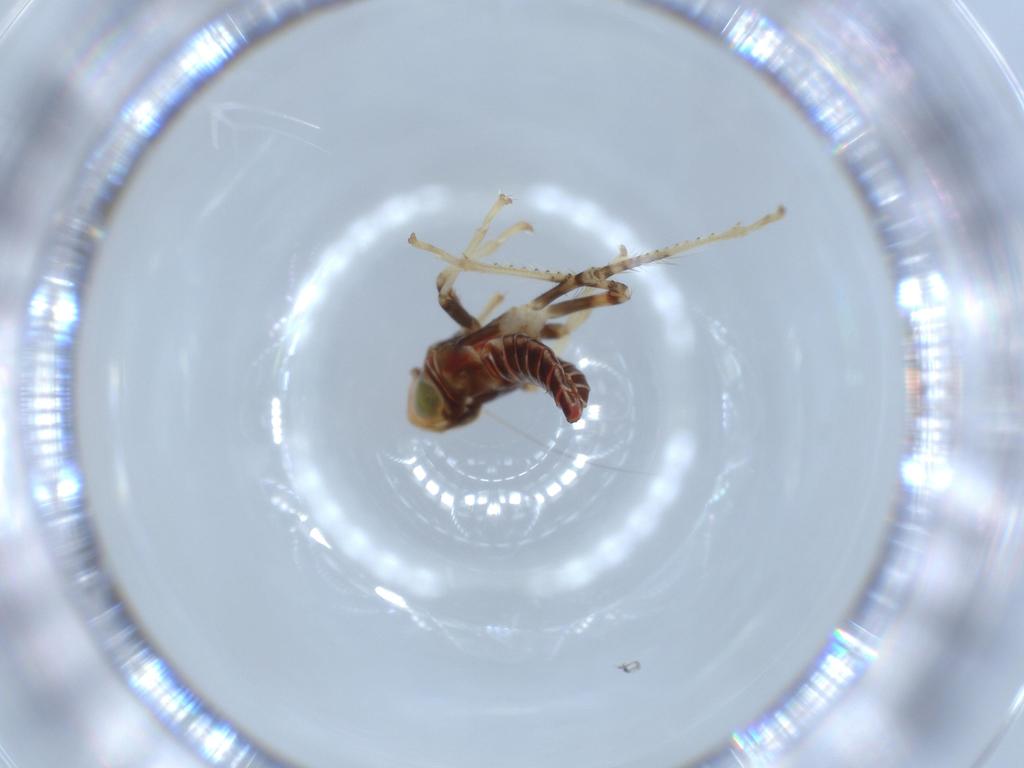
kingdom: Animalia
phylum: Arthropoda
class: Insecta
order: Hemiptera
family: Cicadellidae
